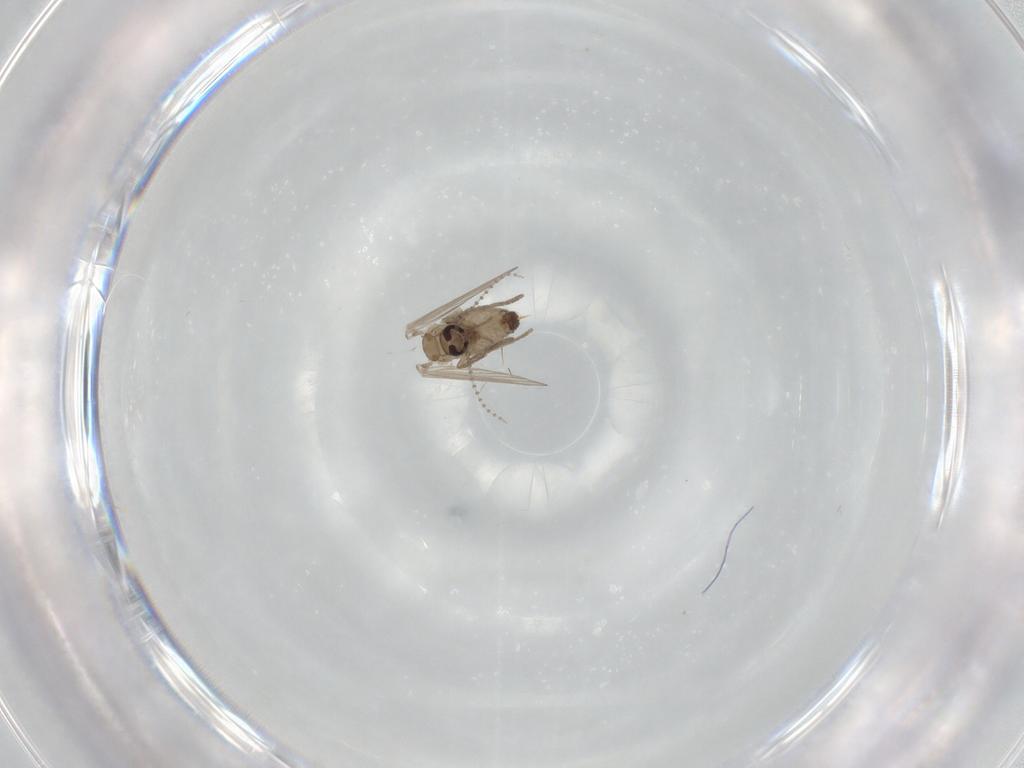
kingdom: Animalia
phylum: Arthropoda
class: Insecta
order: Diptera
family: Psychodidae
